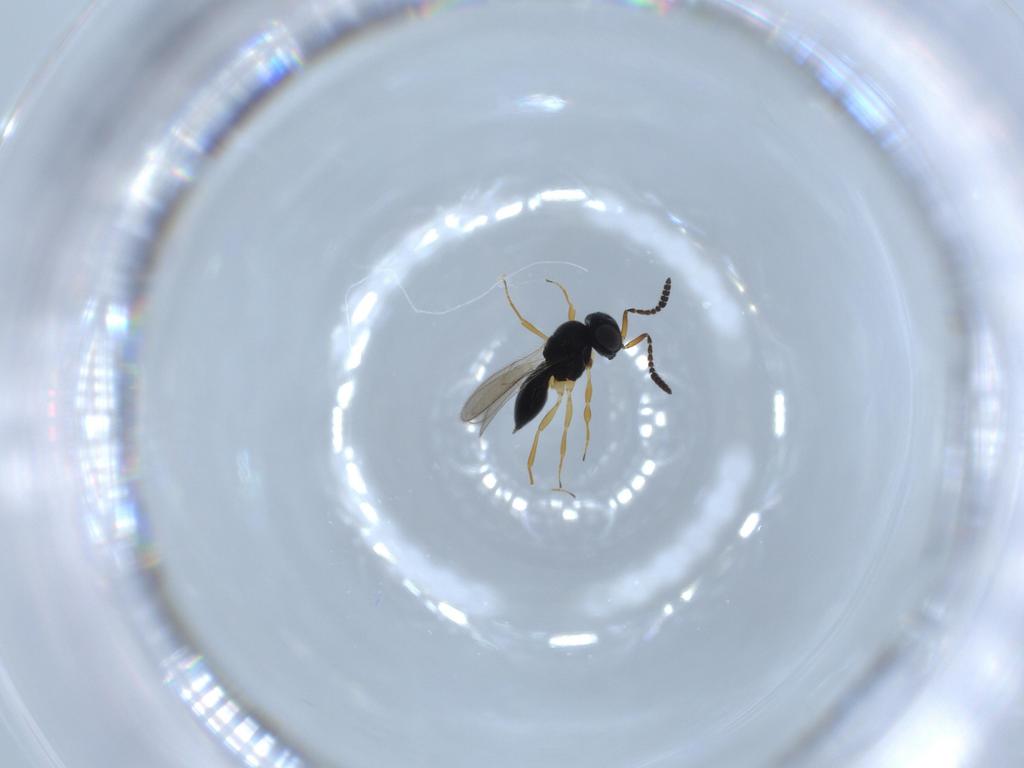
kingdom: Animalia
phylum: Arthropoda
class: Insecta
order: Hymenoptera
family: Scelionidae
